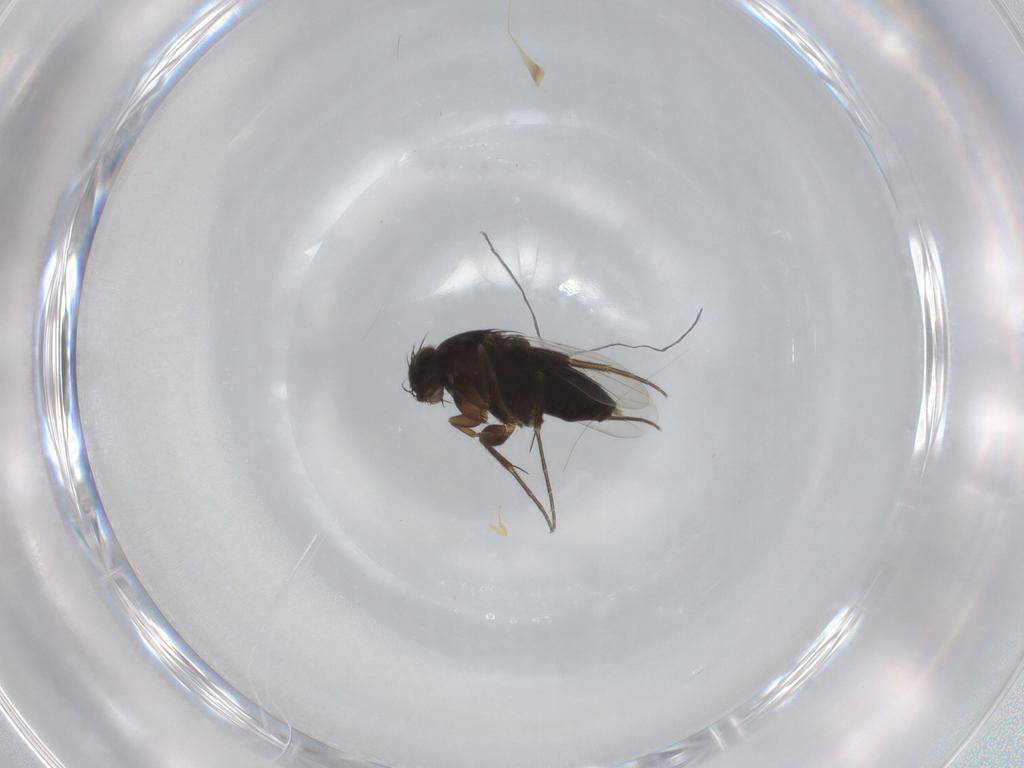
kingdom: Animalia
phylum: Arthropoda
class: Insecta
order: Diptera
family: Phoridae
